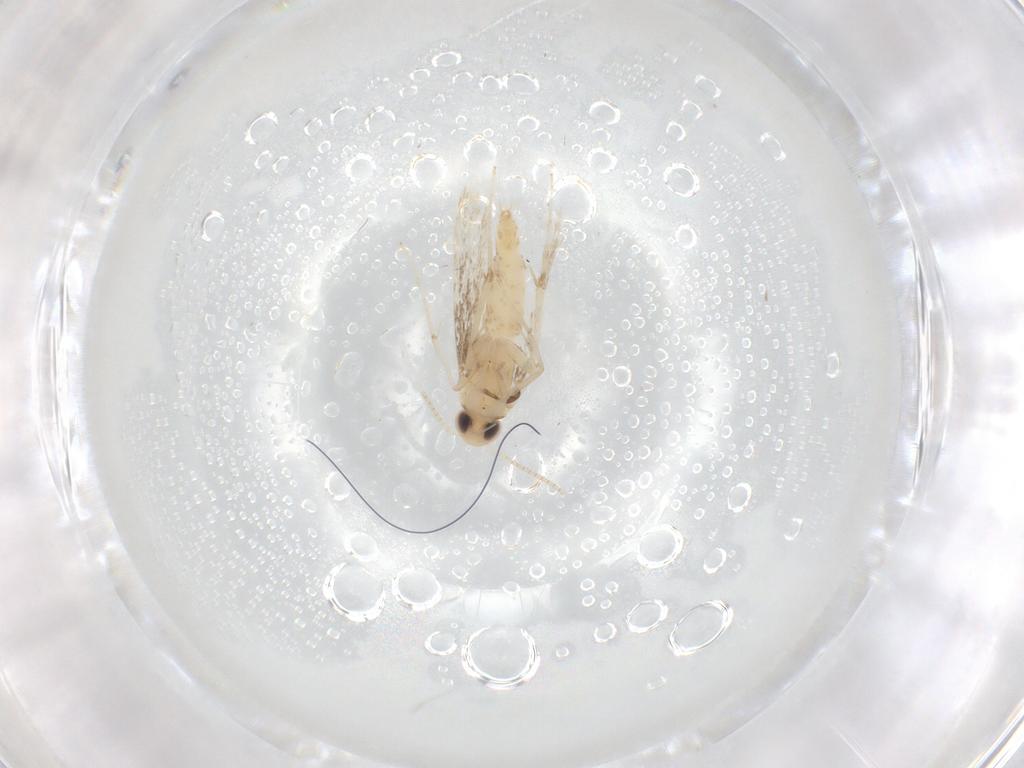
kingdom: Animalia
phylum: Arthropoda
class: Insecta
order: Lepidoptera
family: Gracillariidae
